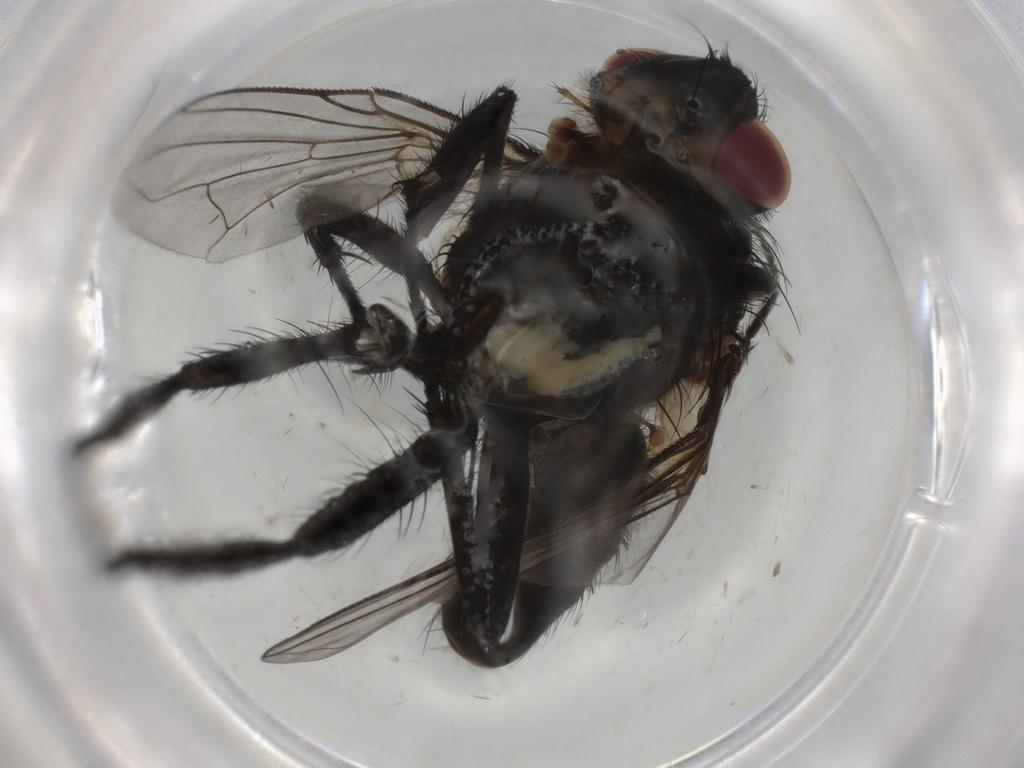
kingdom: Animalia
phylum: Arthropoda
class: Insecta
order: Diptera
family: Tachinidae
